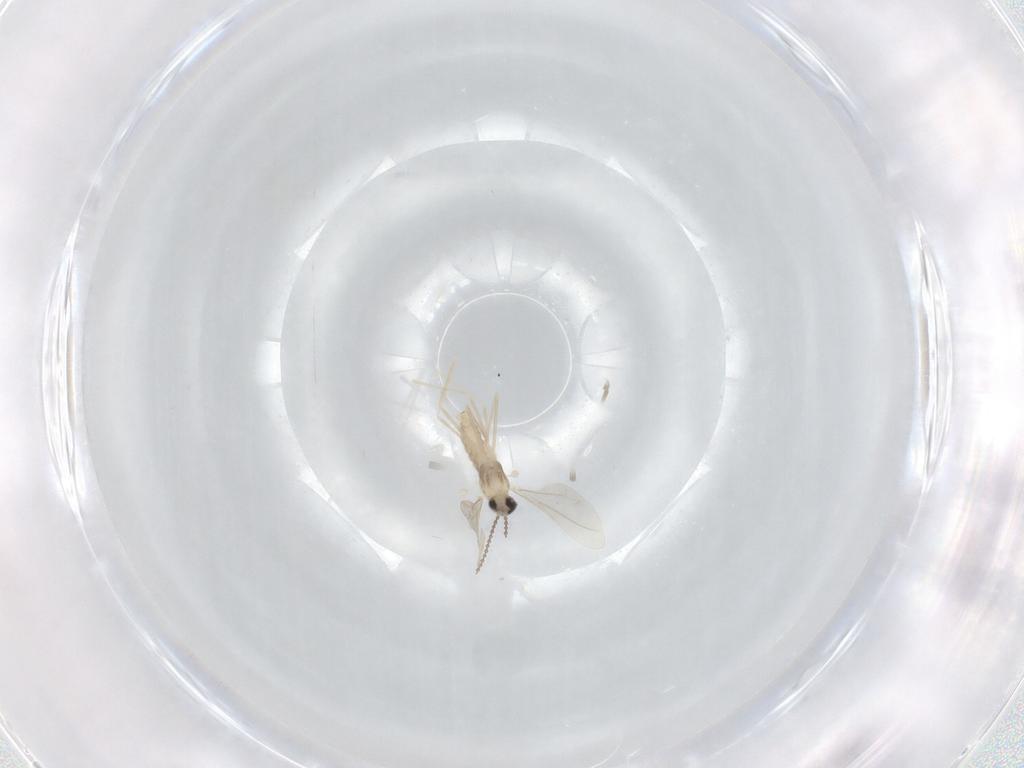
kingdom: Animalia
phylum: Arthropoda
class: Insecta
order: Diptera
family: Cecidomyiidae
